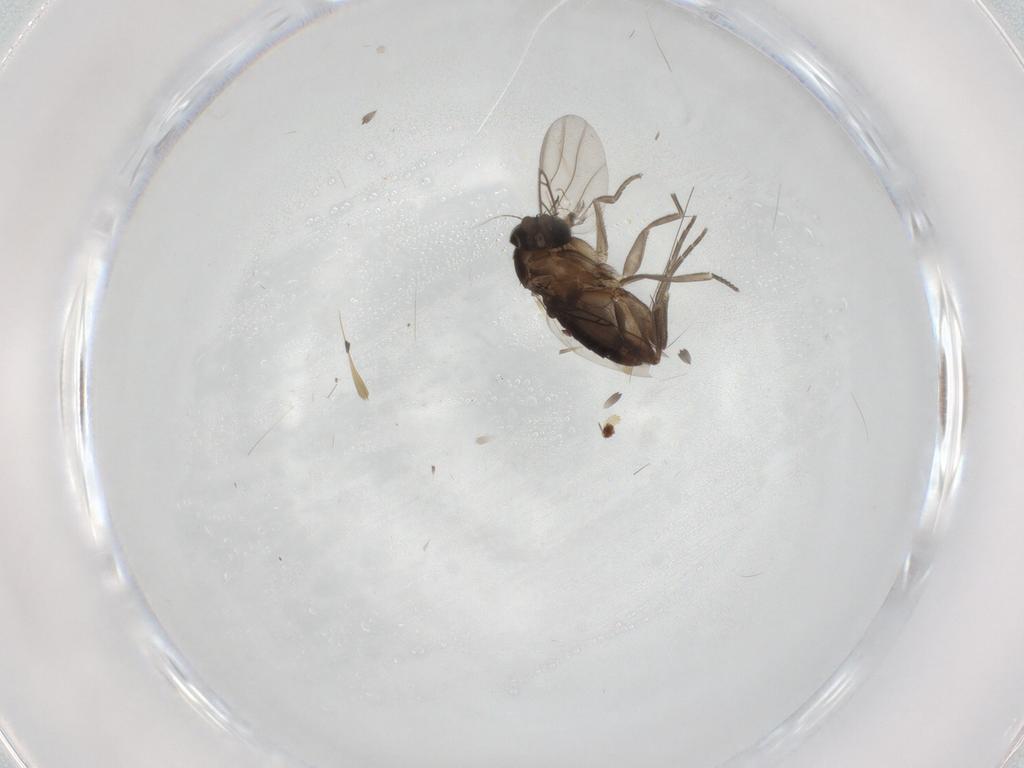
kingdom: Animalia
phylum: Arthropoda
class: Insecta
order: Diptera
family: Phoridae
